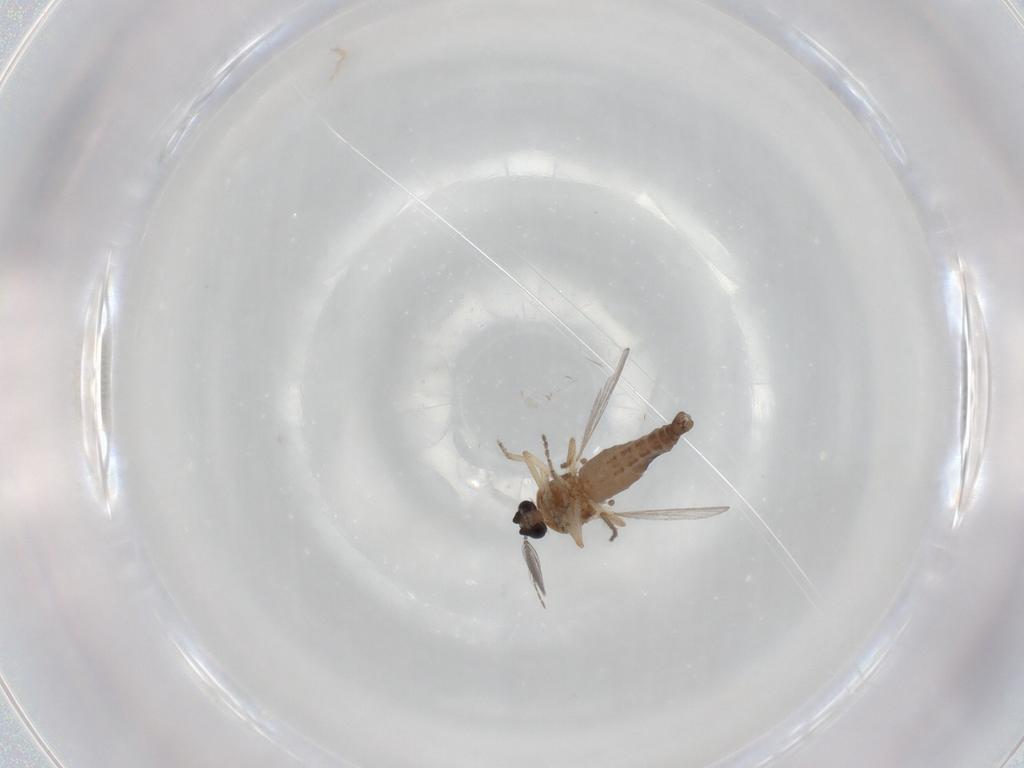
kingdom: Animalia
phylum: Arthropoda
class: Insecta
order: Diptera
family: Ceratopogonidae
